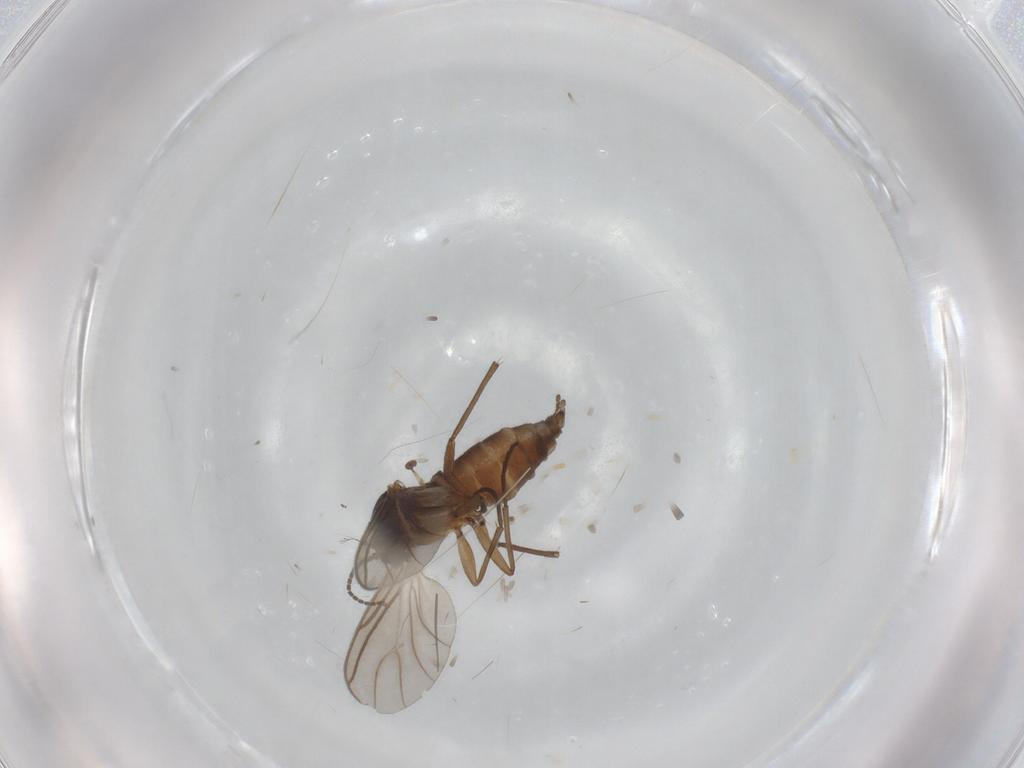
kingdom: Animalia
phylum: Arthropoda
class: Insecta
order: Diptera
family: Sciaridae
